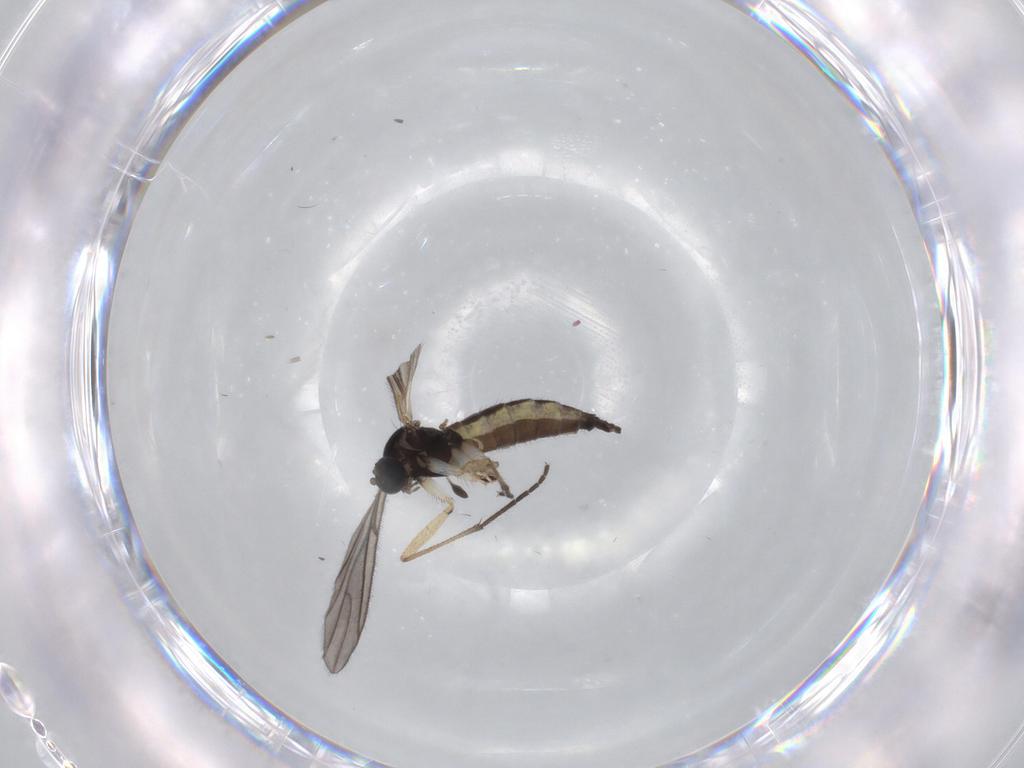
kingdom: Animalia
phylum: Arthropoda
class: Insecta
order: Diptera
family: Sciaridae
